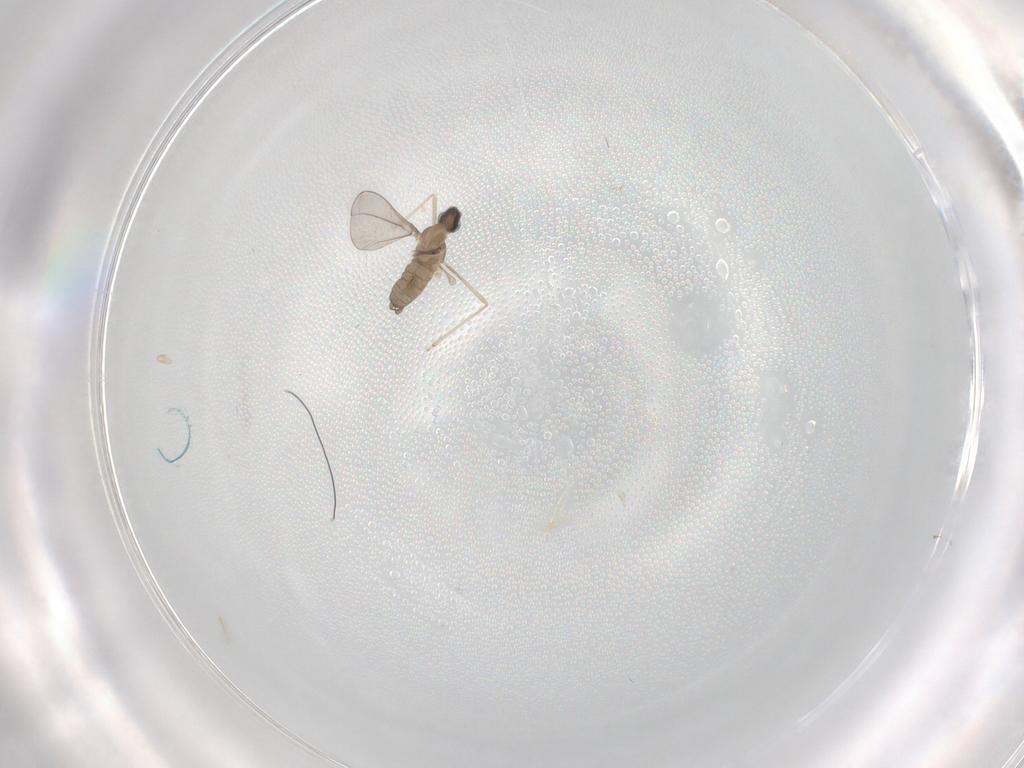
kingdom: Animalia
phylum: Arthropoda
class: Insecta
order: Diptera
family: Cecidomyiidae
